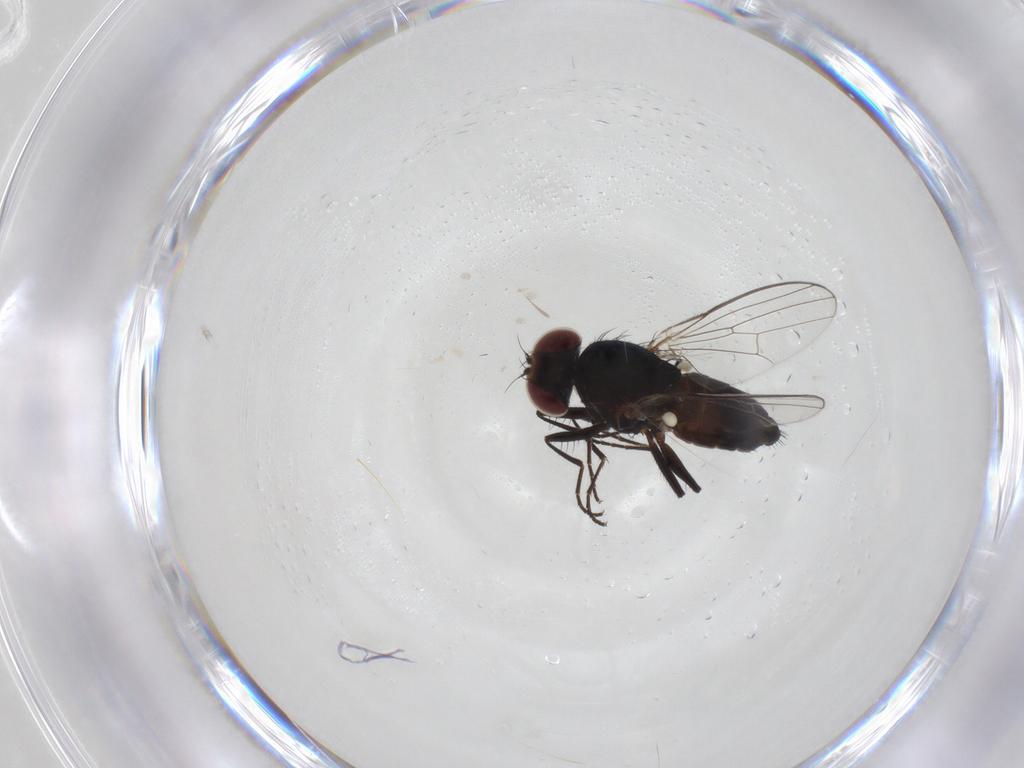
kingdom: Animalia
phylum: Arthropoda
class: Insecta
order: Diptera
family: Carnidae
